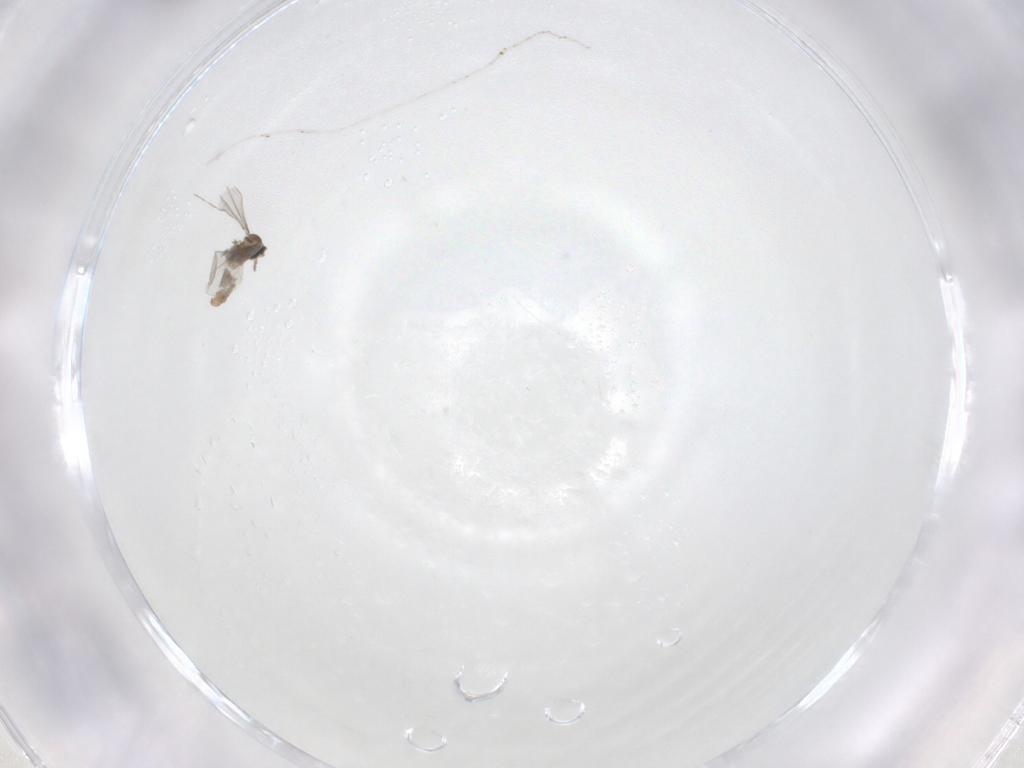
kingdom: Animalia
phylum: Arthropoda
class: Insecta
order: Diptera
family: Cecidomyiidae
